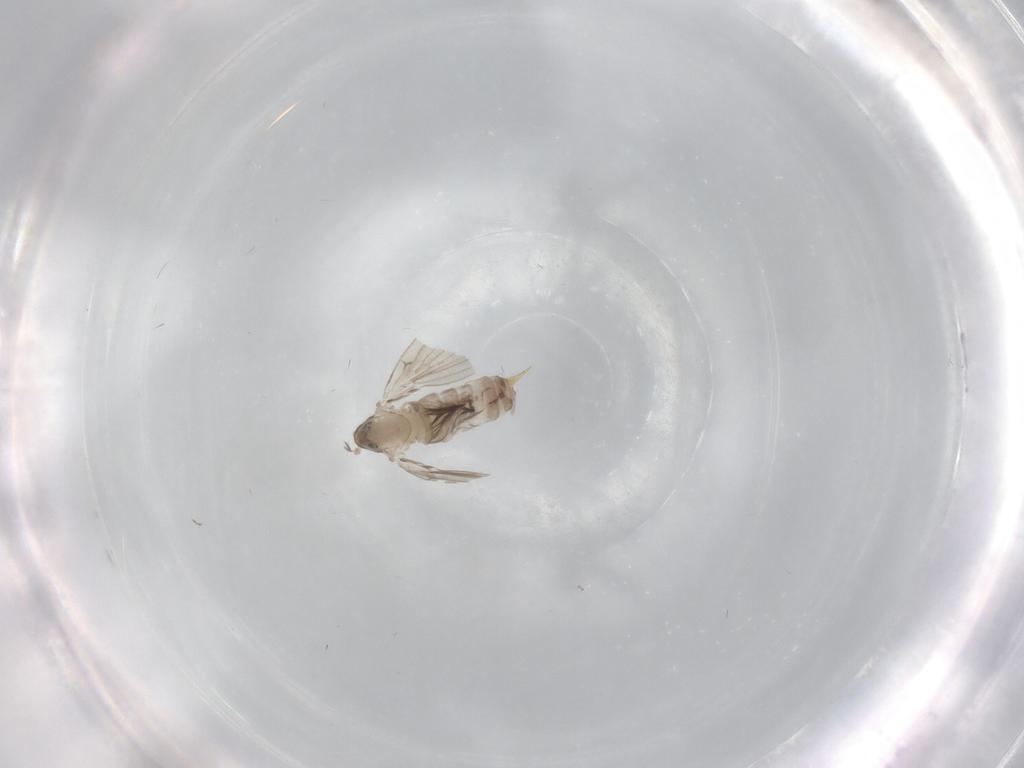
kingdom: Animalia
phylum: Arthropoda
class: Insecta
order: Diptera
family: Psychodidae
